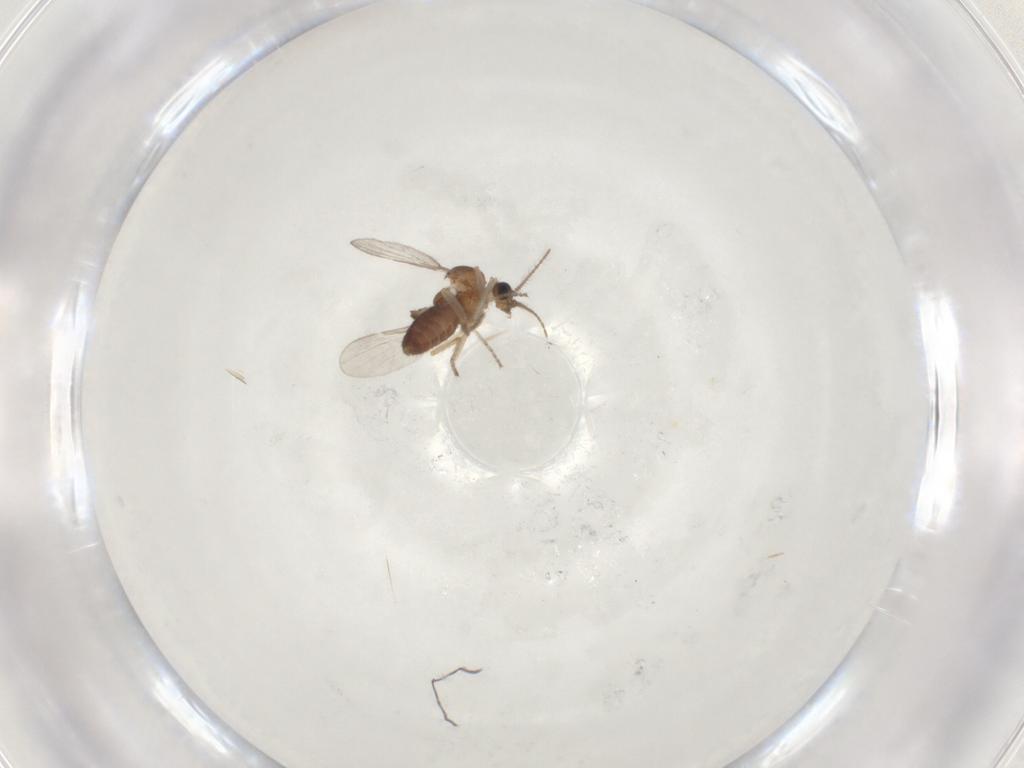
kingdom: Animalia
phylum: Arthropoda
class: Insecta
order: Diptera
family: Ceratopogonidae
